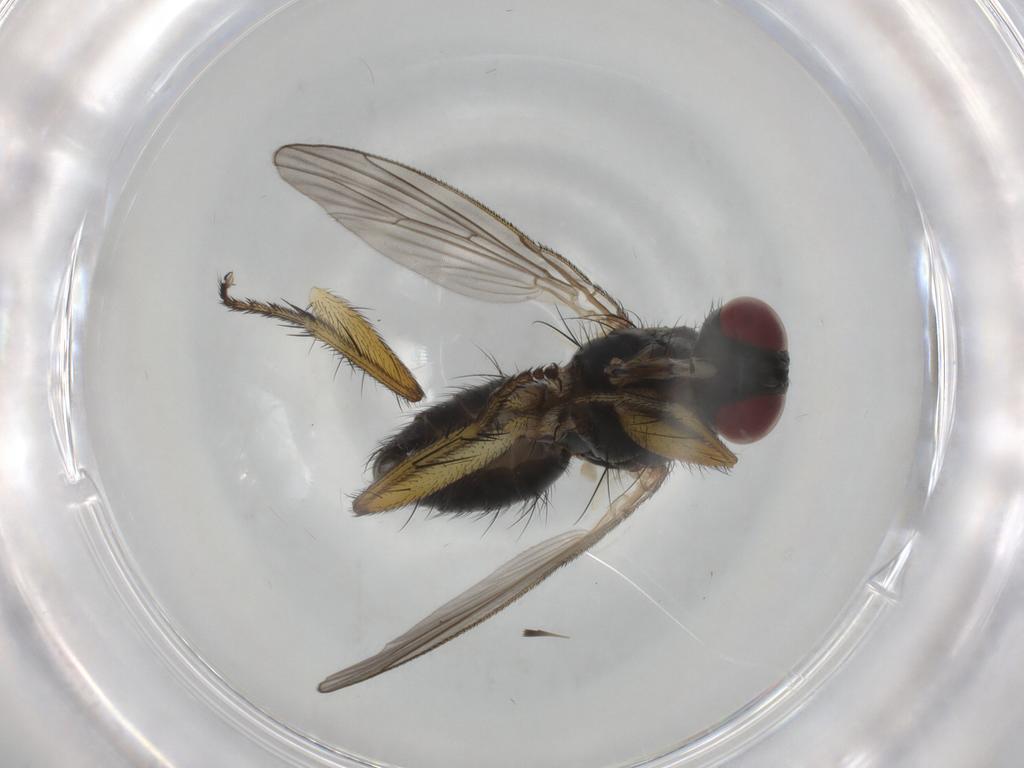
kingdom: Animalia
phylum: Arthropoda
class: Insecta
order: Diptera
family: Muscidae
